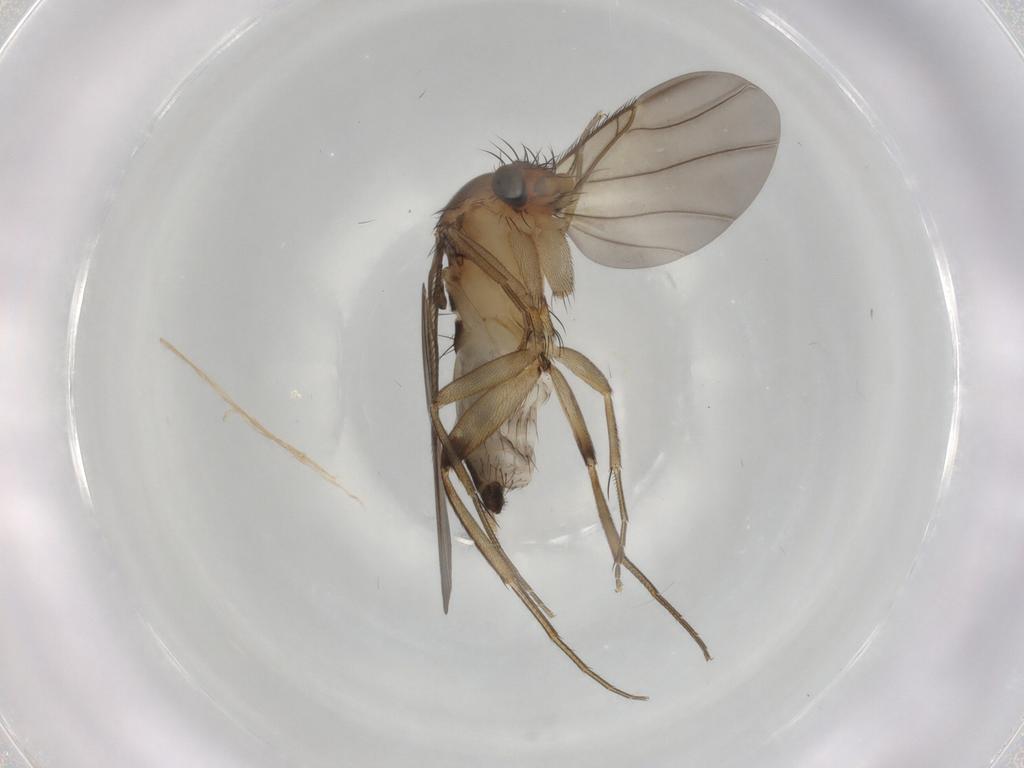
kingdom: Animalia
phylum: Arthropoda
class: Insecta
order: Diptera
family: Phoridae
